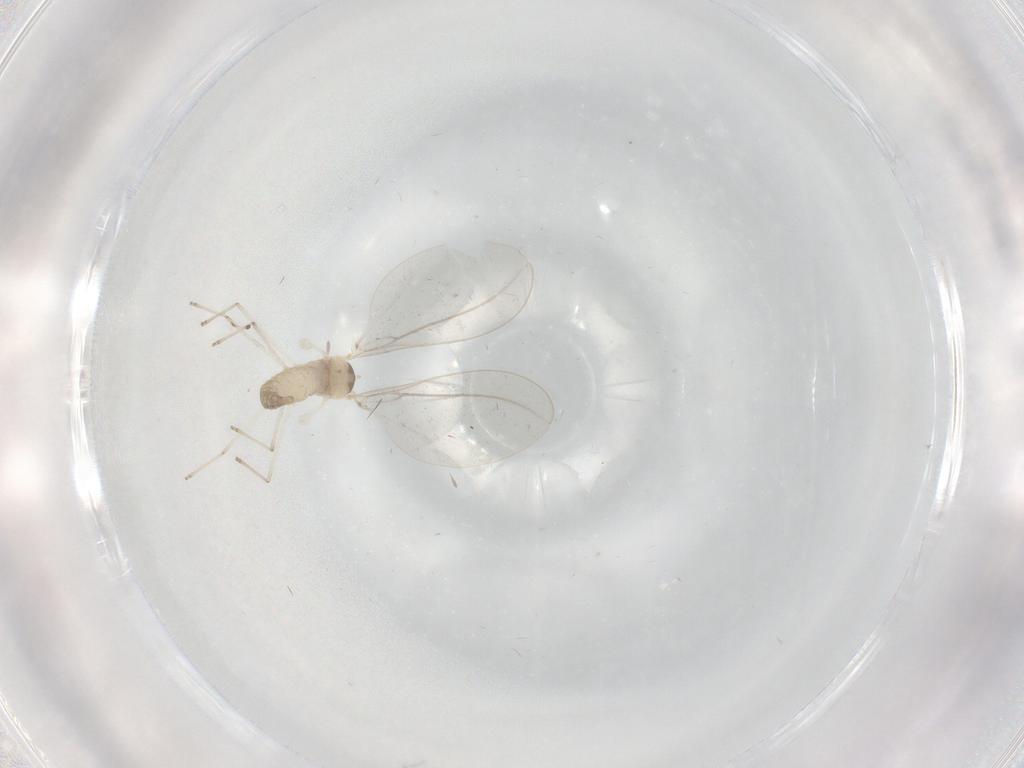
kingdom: Animalia
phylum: Arthropoda
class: Insecta
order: Diptera
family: Cecidomyiidae
